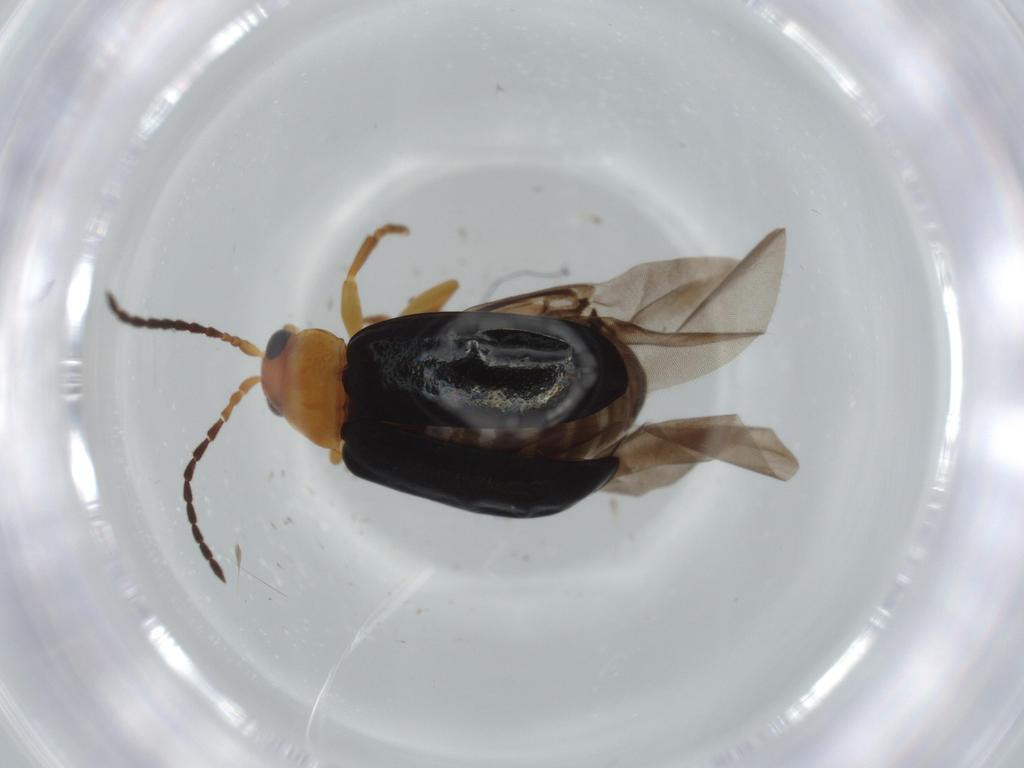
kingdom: Animalia
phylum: Arthropoda
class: Insecta
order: Coleoptera
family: Chrysomelidae
